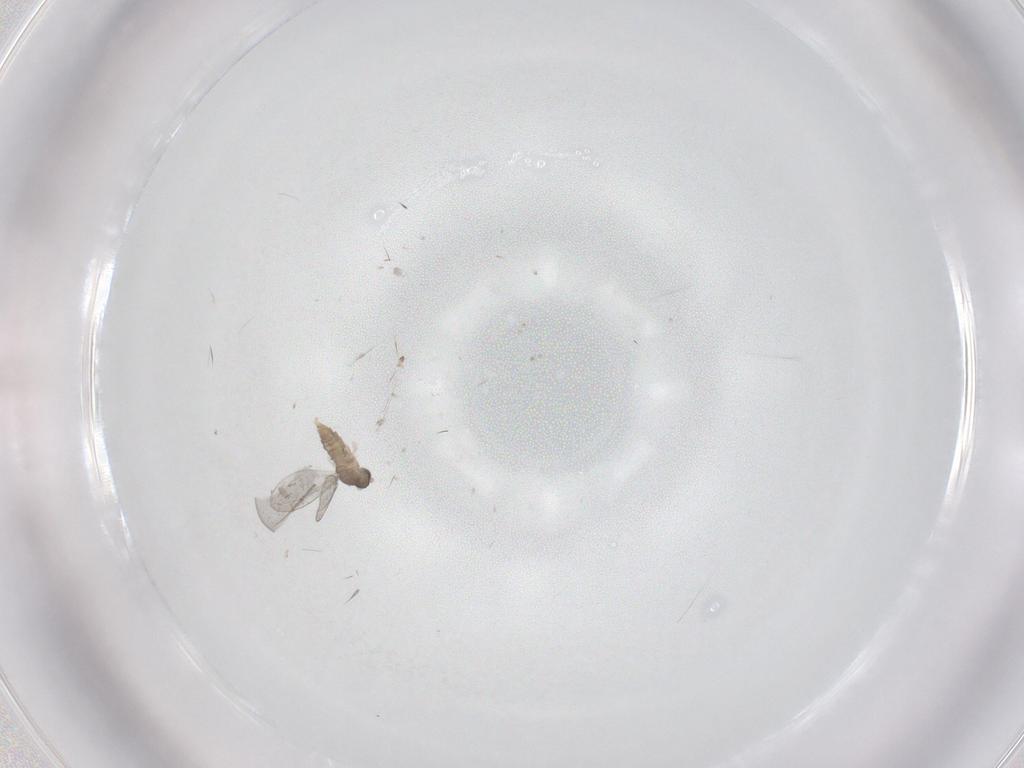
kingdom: Animalia
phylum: Arthropoda
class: Insecta
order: Diptera
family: Cecidomyiidae
